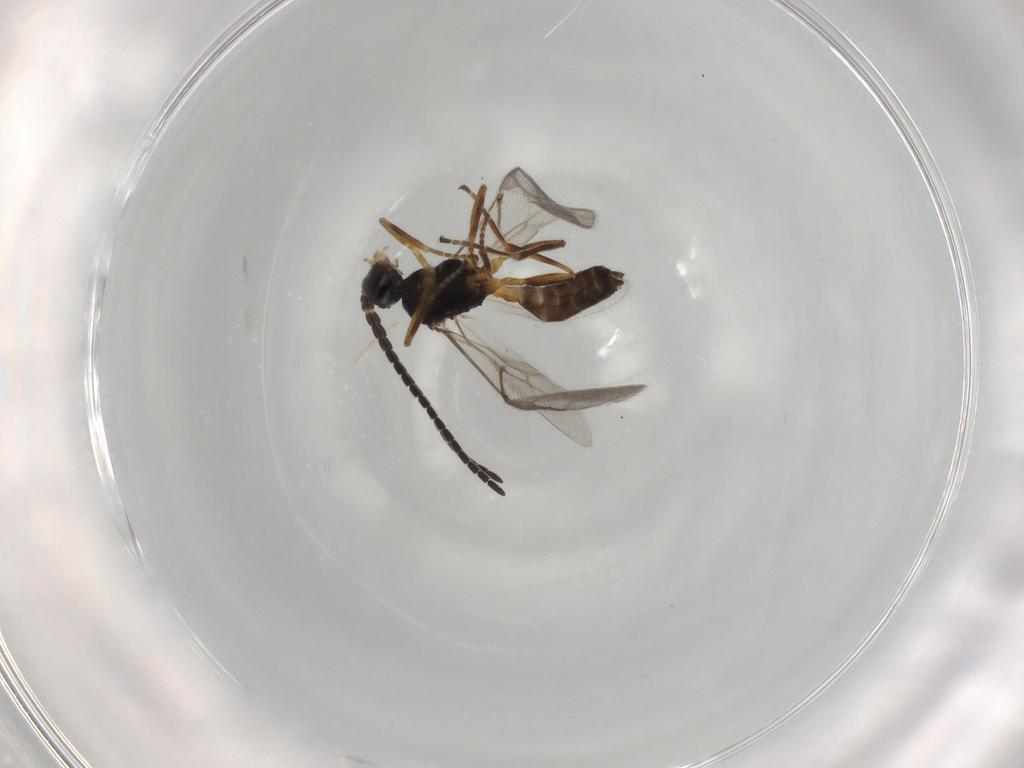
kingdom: Animalia
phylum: Arthropoda
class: Insecta
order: Hymenoptera
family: Braconidae
